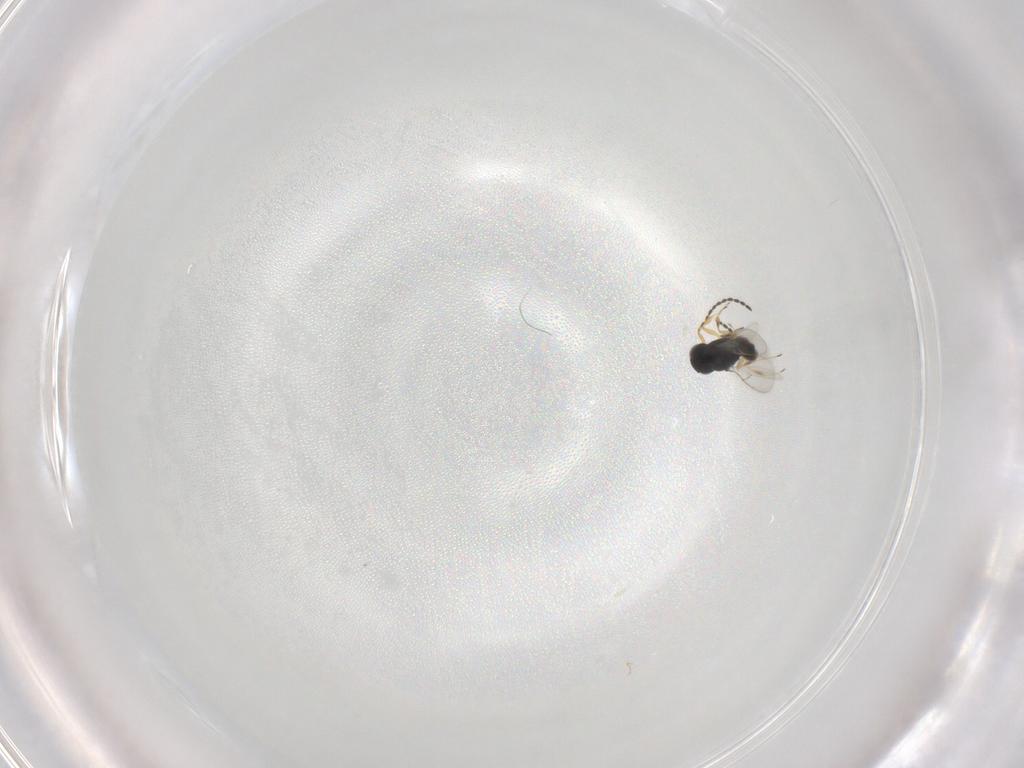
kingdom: Animalia
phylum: Arthropoda
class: Insecta
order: Hymenoptera
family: Scelionidae
